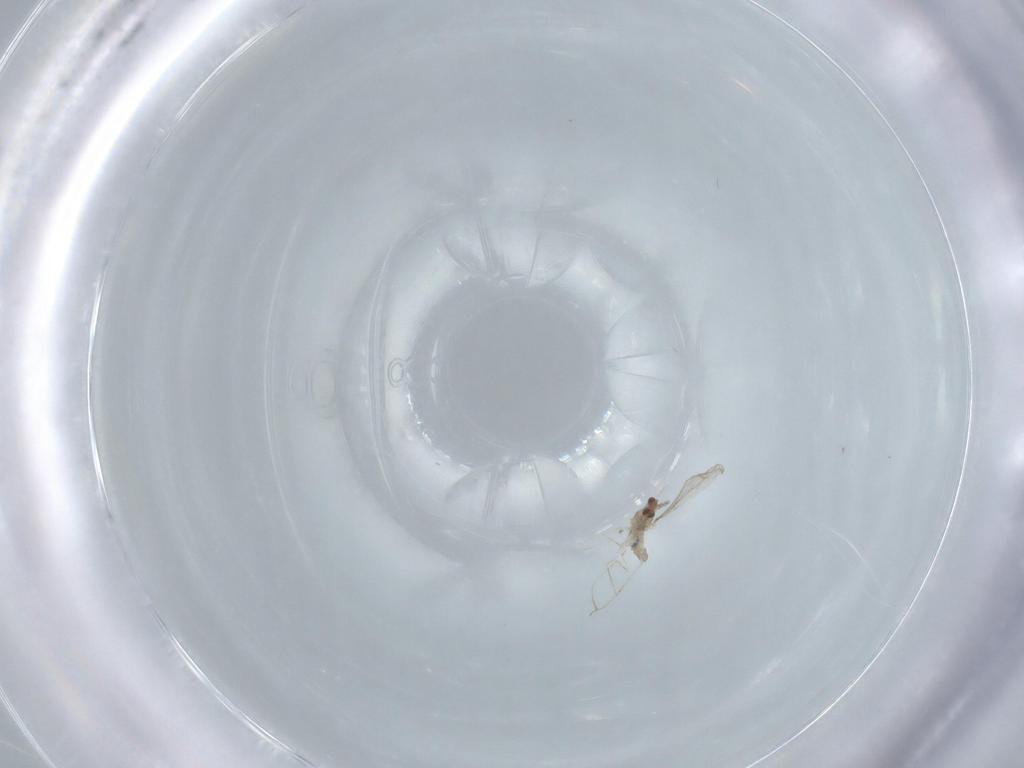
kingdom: Animalia
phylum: Arthropoda
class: Insecta
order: Diptera
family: Cecidomyiidae
